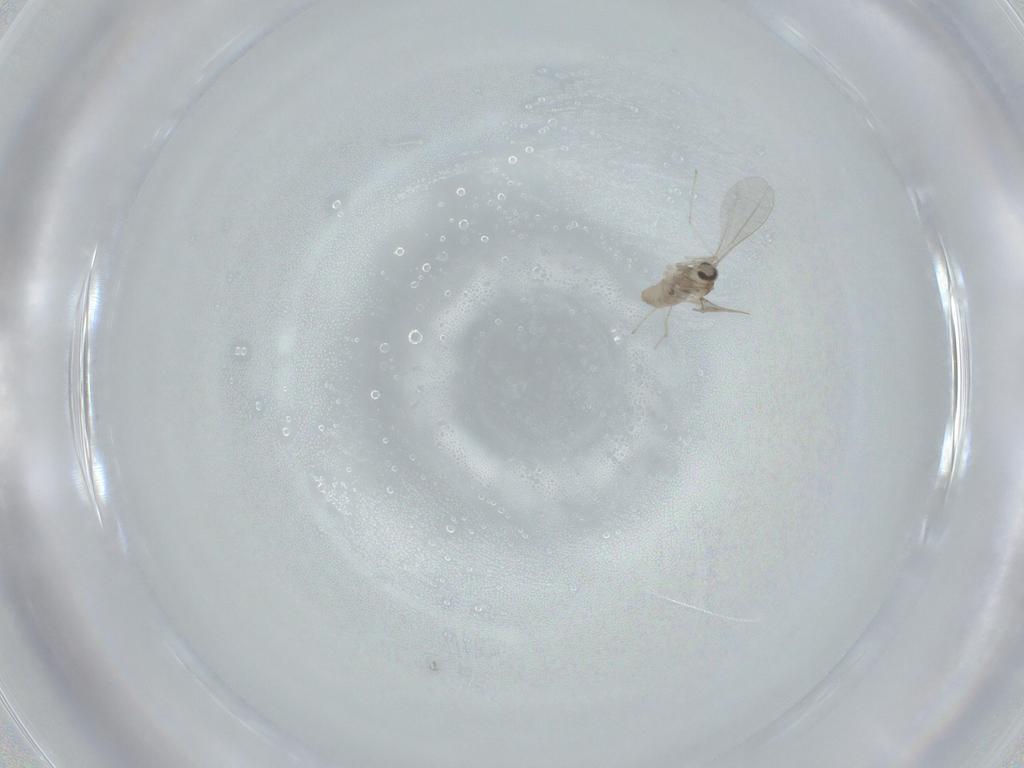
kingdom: Animalia
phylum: Arthropoda
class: Insecta
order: Diptera
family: Cecidomyiidae
